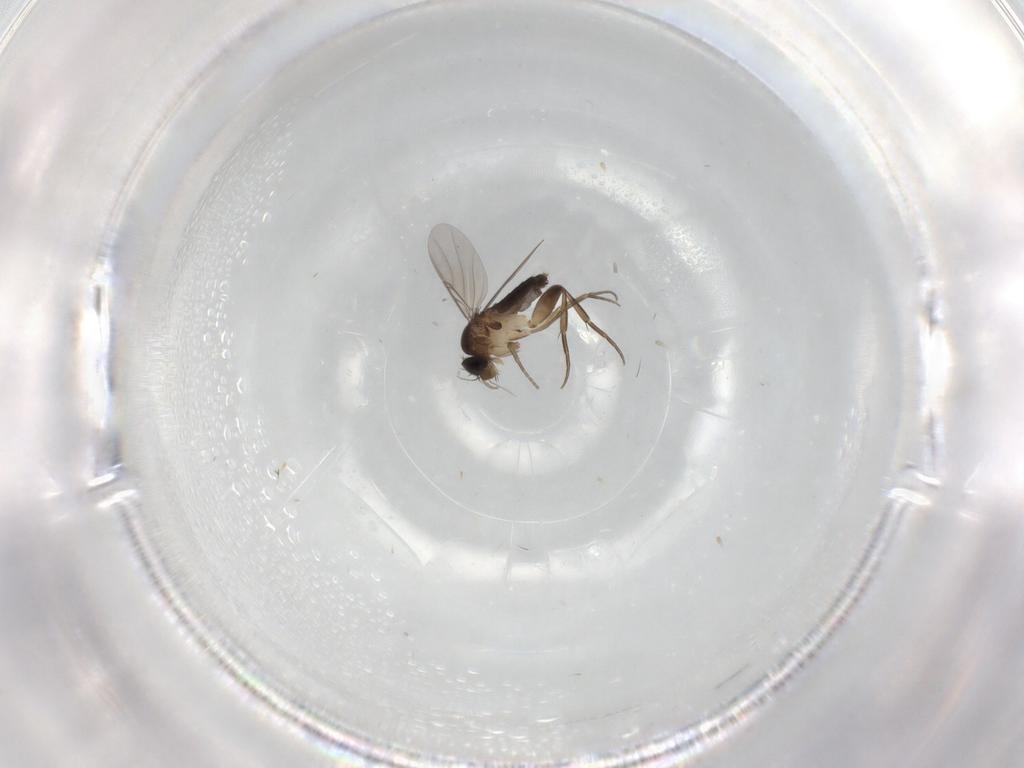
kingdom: Animalia
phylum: Arthropoda
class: Insecta
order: Diptera
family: Phoridae
